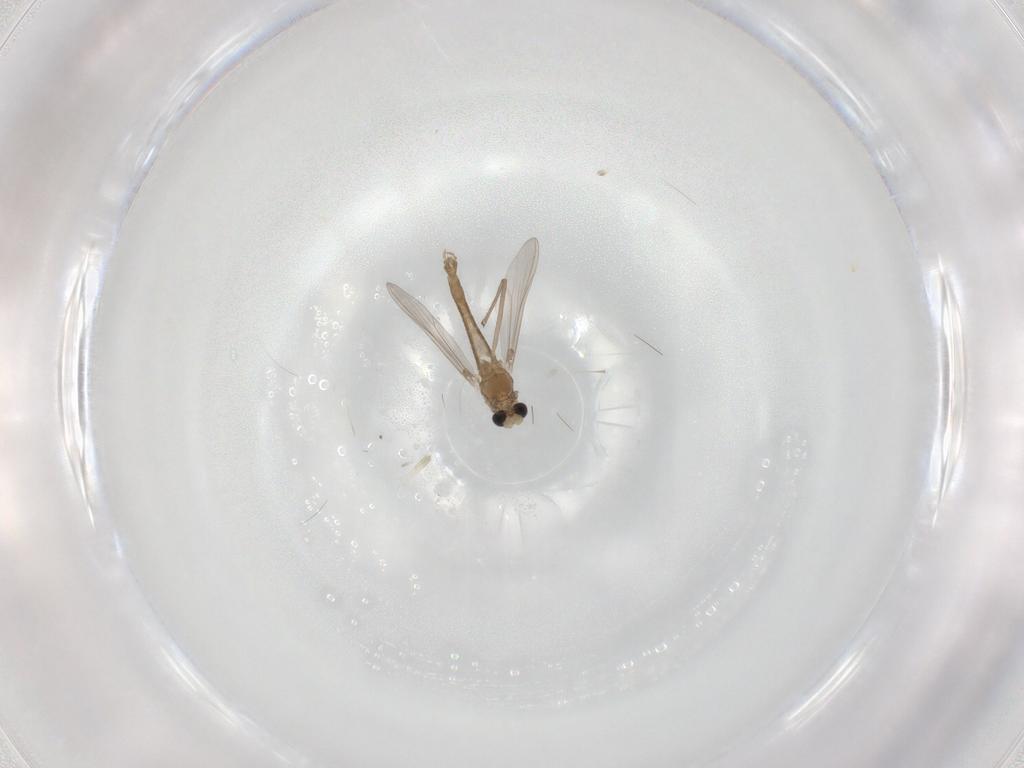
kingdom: Animalia
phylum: Arthropoda
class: Insecta
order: Diptera
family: Chironomidae
